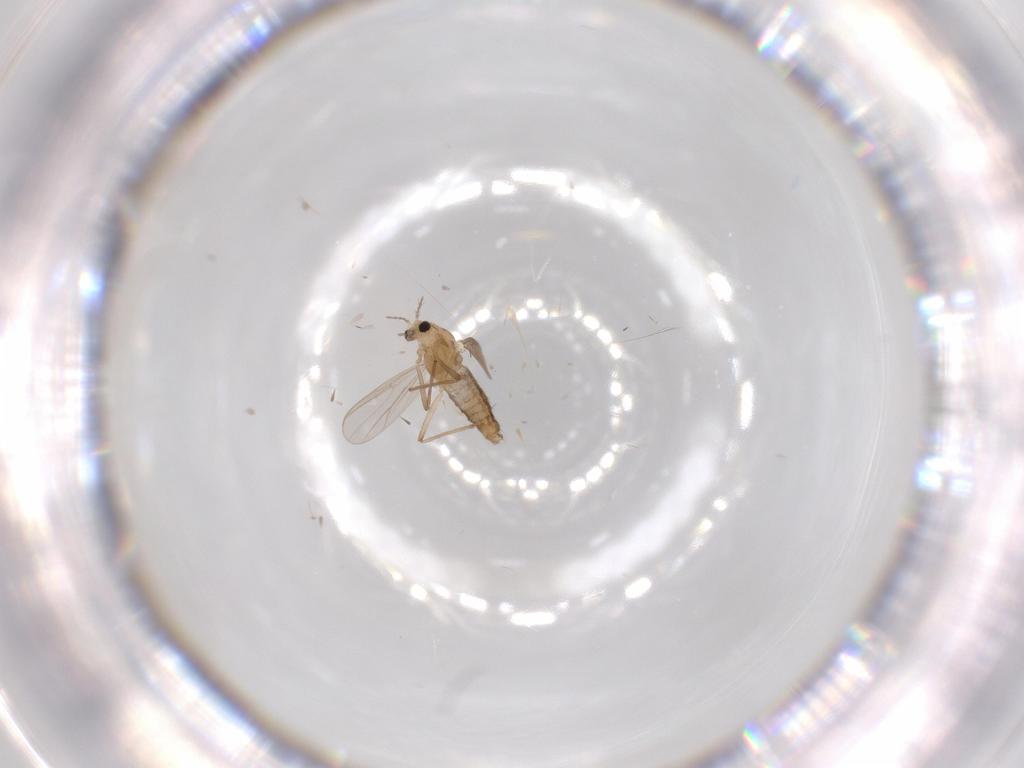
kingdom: Animalia
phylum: Arthropoda
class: Insecta
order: Diptera
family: Chironomidae
